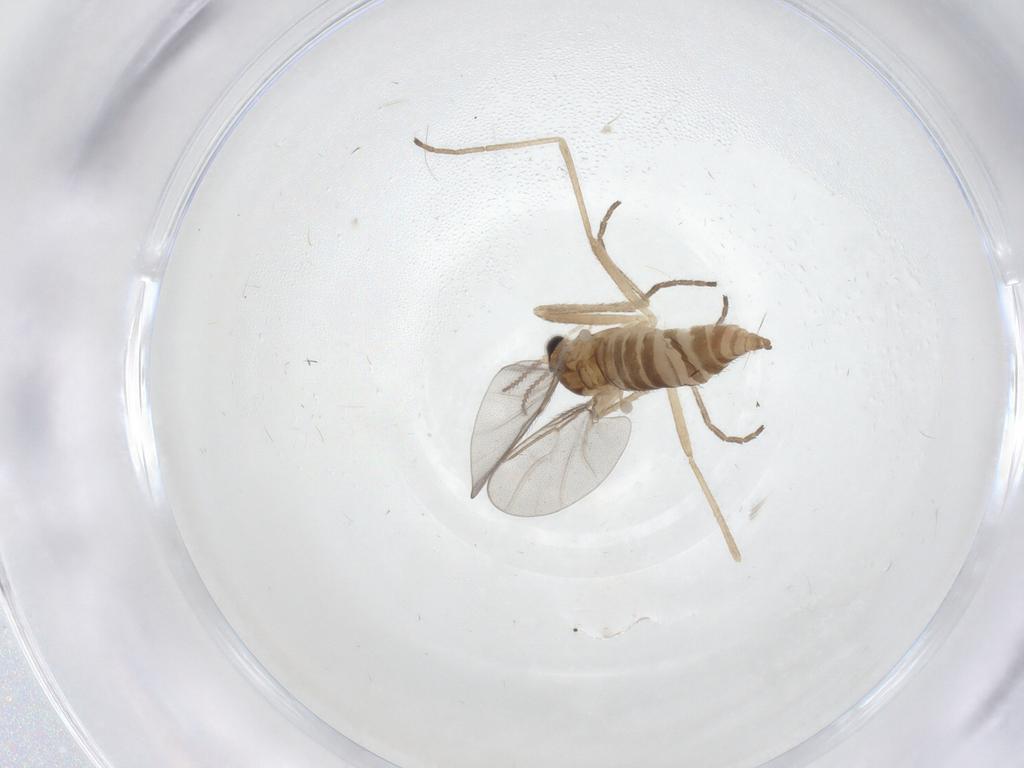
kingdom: Animalia
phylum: Arthropoda
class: Insecta
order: Diptera
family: Cecidomyiidae
